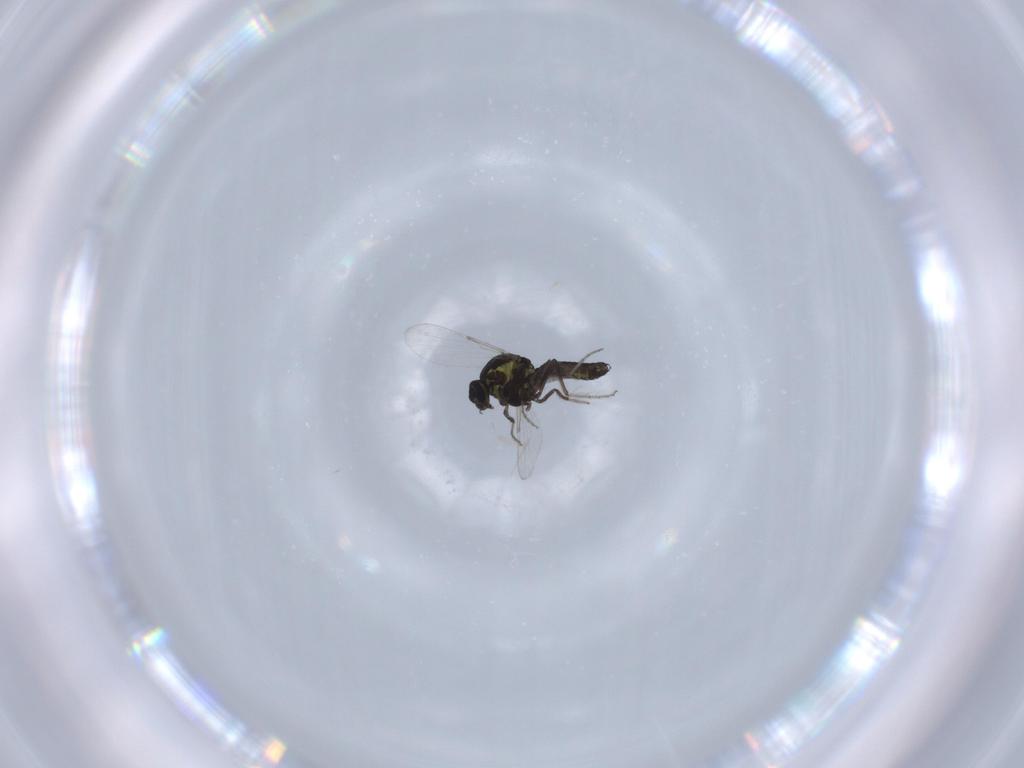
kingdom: Animalia
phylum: Arthropoda
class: Insecta
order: Diptera
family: Ceratopogonidae
